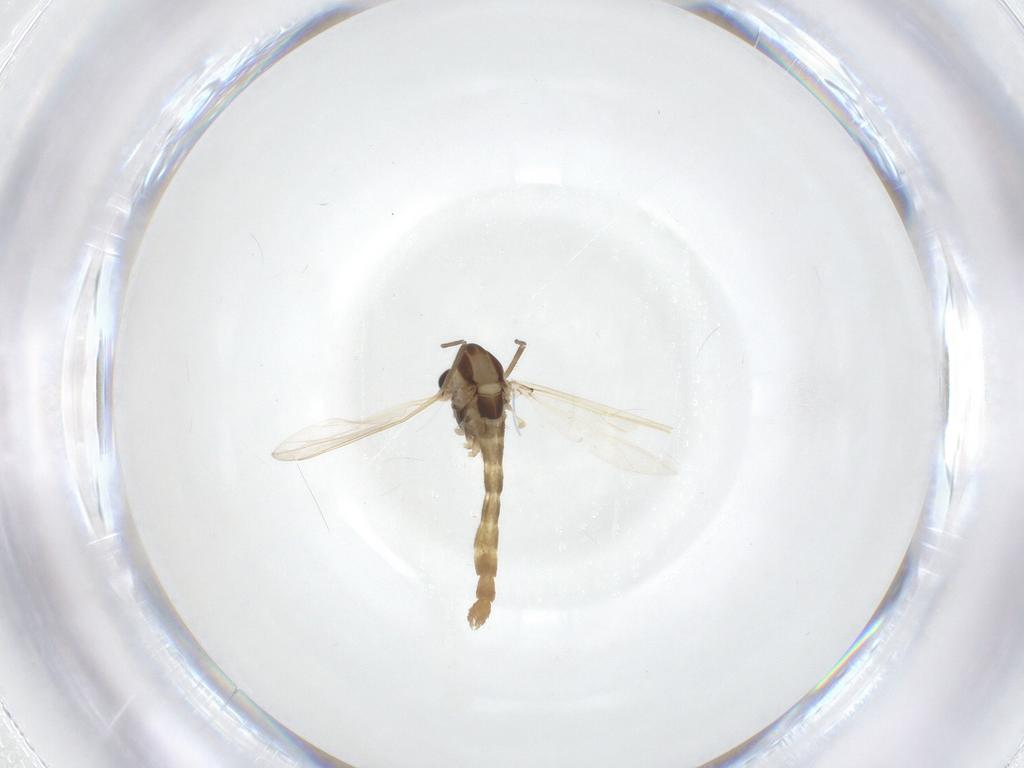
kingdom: Animalia
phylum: Arthropoda
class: Insecta
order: Diptera
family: Chironomidae
